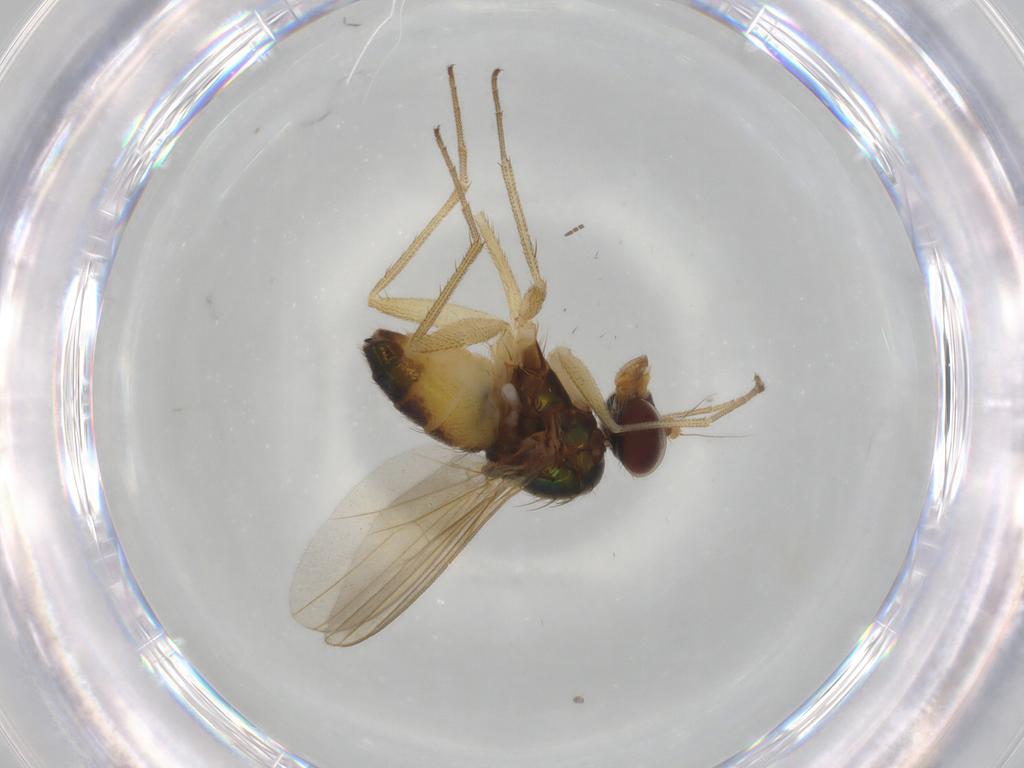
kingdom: Animalia
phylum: Arthropoda
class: Insecta
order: Diptera
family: Dolichopodidae
